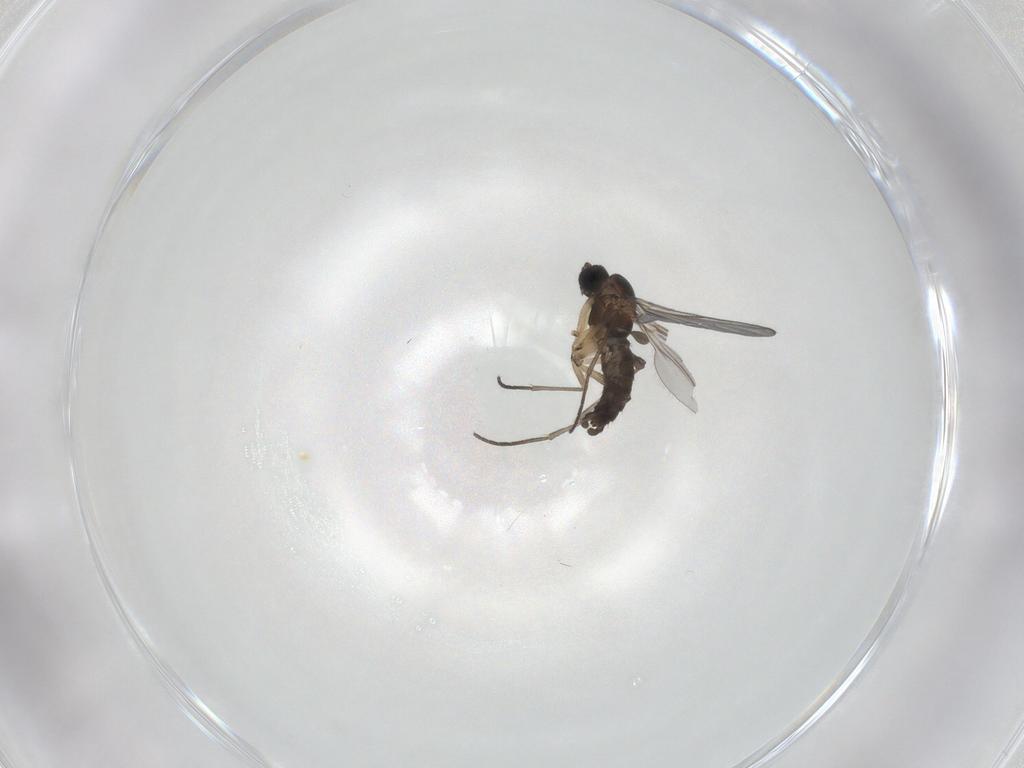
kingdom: Animalia
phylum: Arthropoda
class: Insecta
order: Diptera
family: Sciaridae
